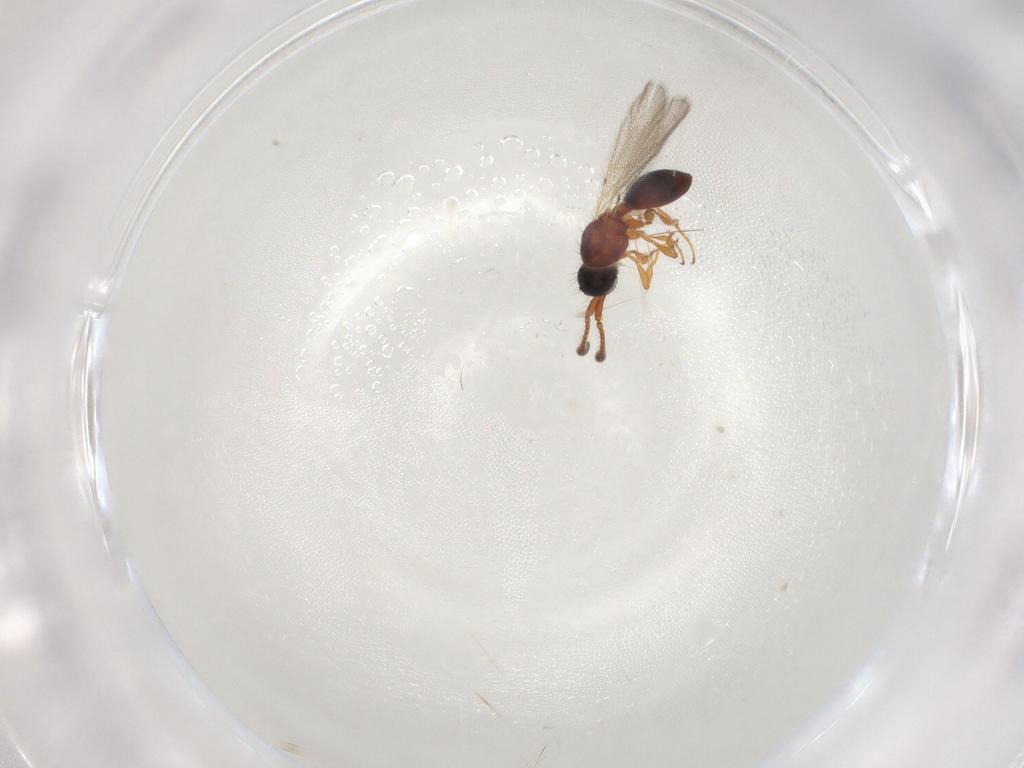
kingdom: Animalia
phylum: Arthropoda
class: Insecta
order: Hymenoptera
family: Diapriidae
